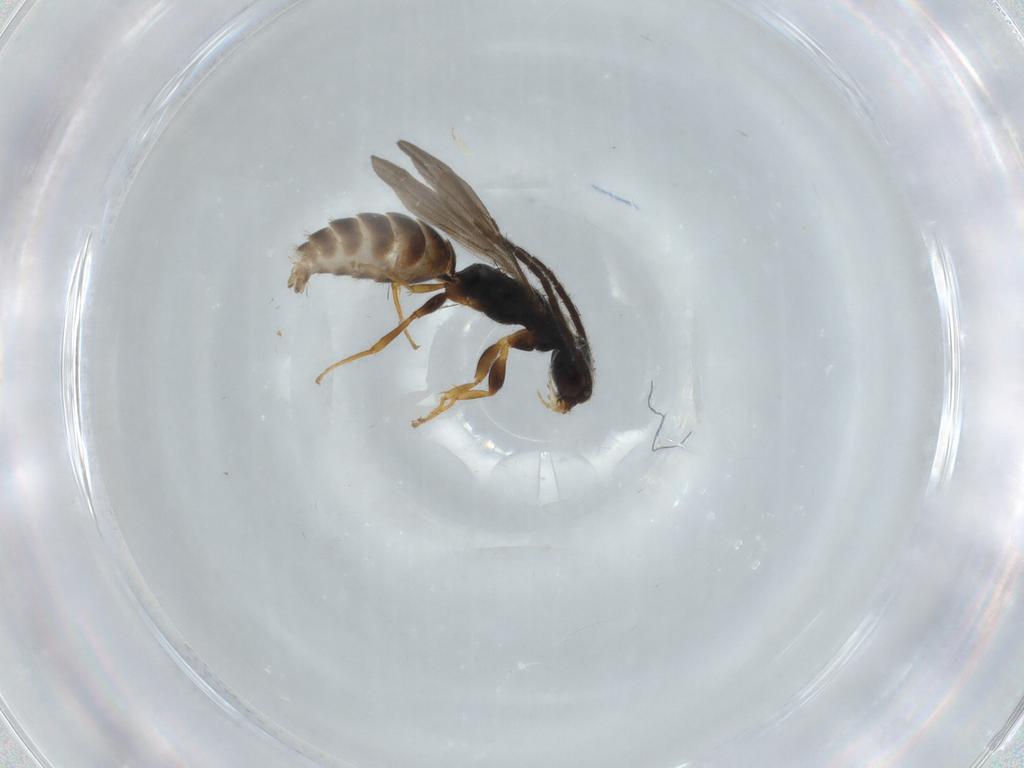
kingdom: Animalia
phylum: Arthropoda
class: Insecta
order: Hymenoptera
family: Bethylidae
